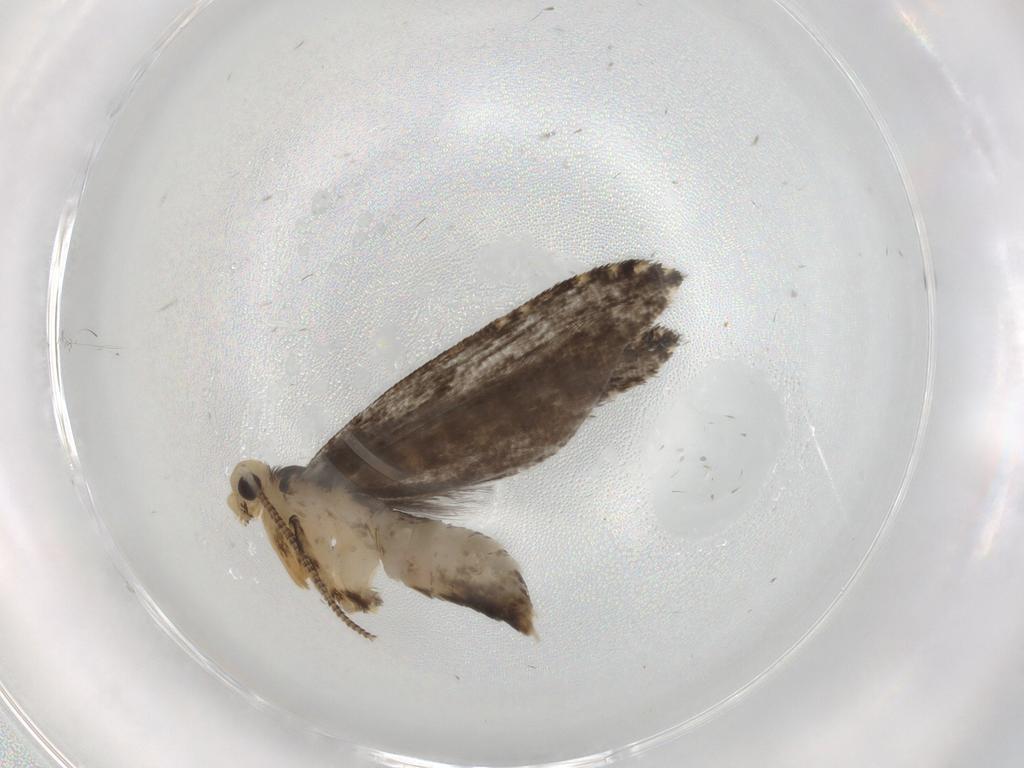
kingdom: Animalia
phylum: Arthropoda
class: Insecta
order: Lepidoptera
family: Tineidae
